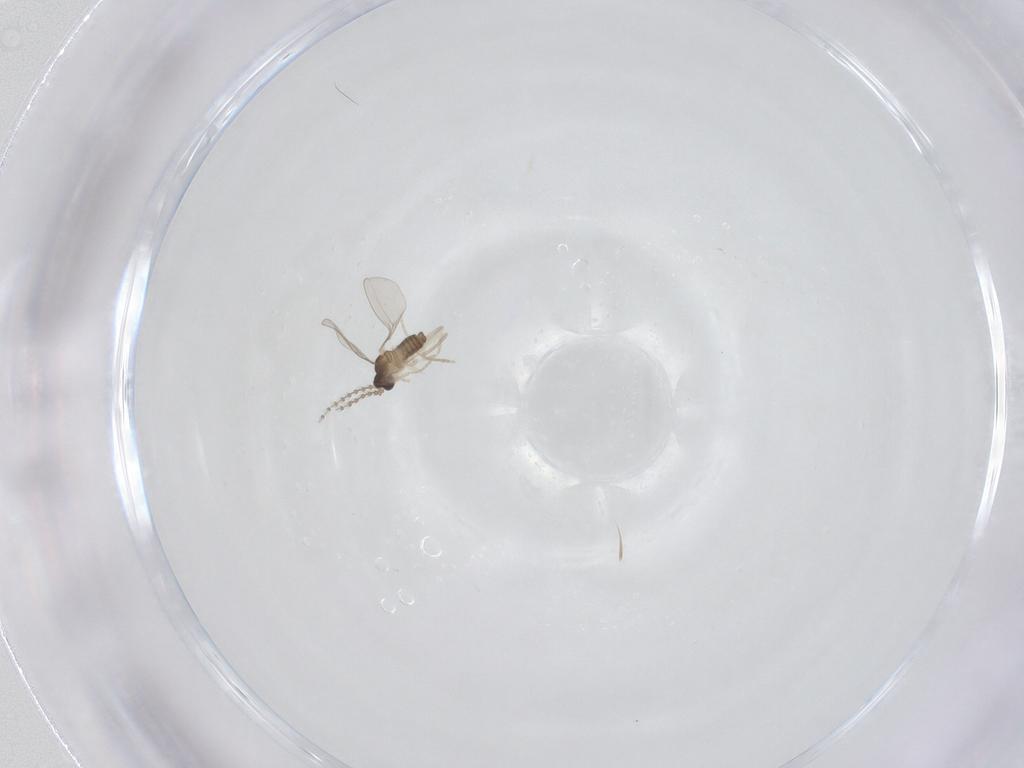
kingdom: Animalia
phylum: Arthropoda
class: Insecta
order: Diptera
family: Cecidomyiidae
